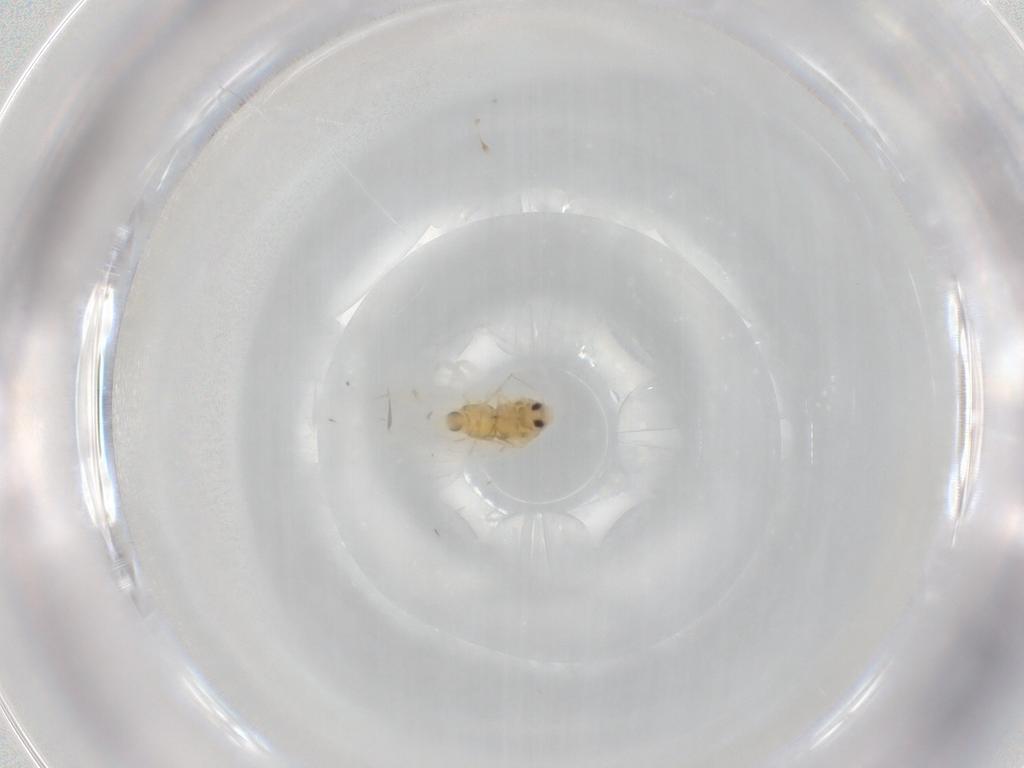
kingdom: Animalia
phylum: Arthropoda
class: Insecta
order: Hemiptera
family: Aleyrodidae
